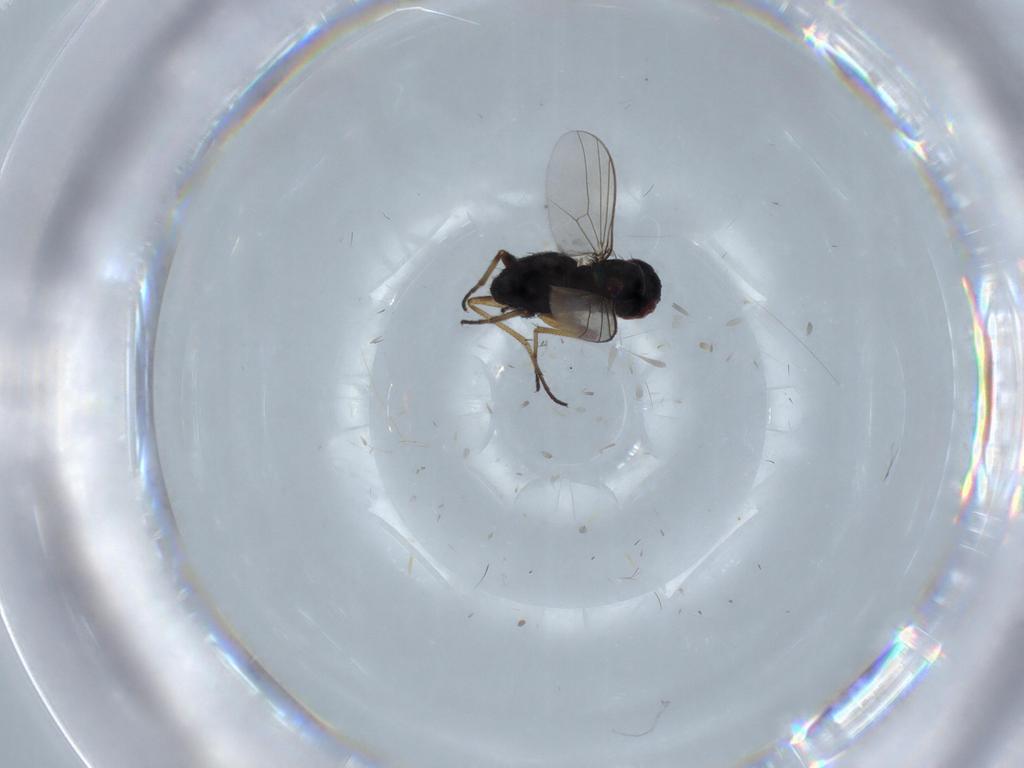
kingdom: Animalia
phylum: Arthropoda
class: Insecta
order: Diptera
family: Dolichopodidae
